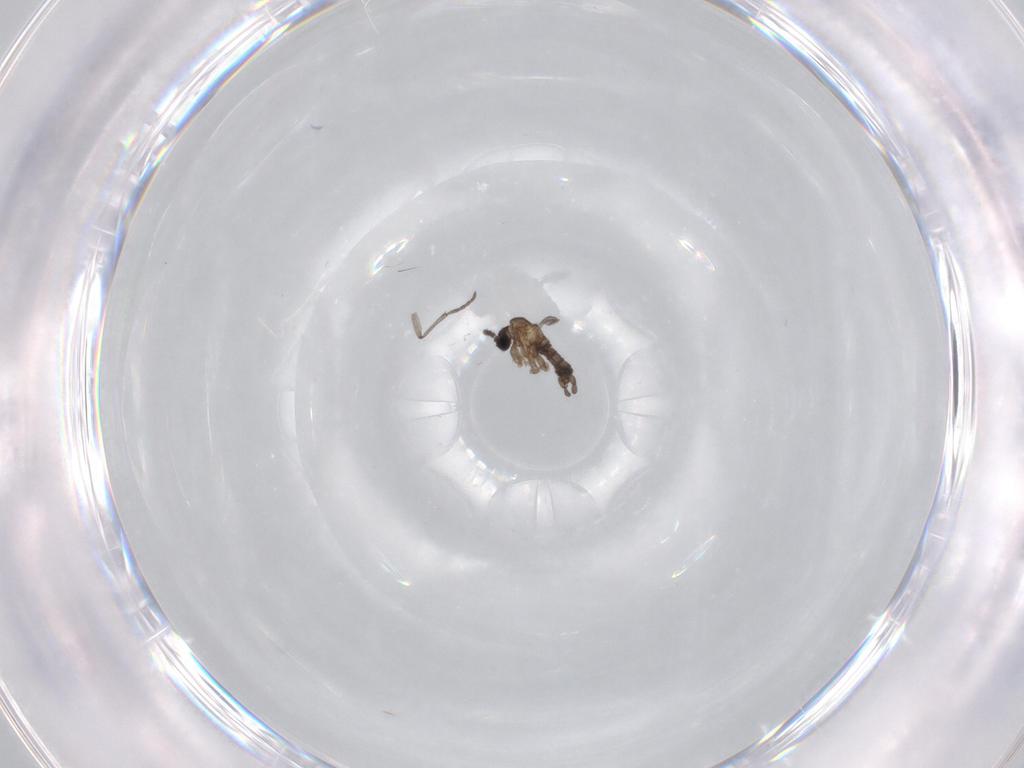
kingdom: Animalia
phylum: Arthropoda
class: Insecta
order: Diptera
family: Sciaridae
